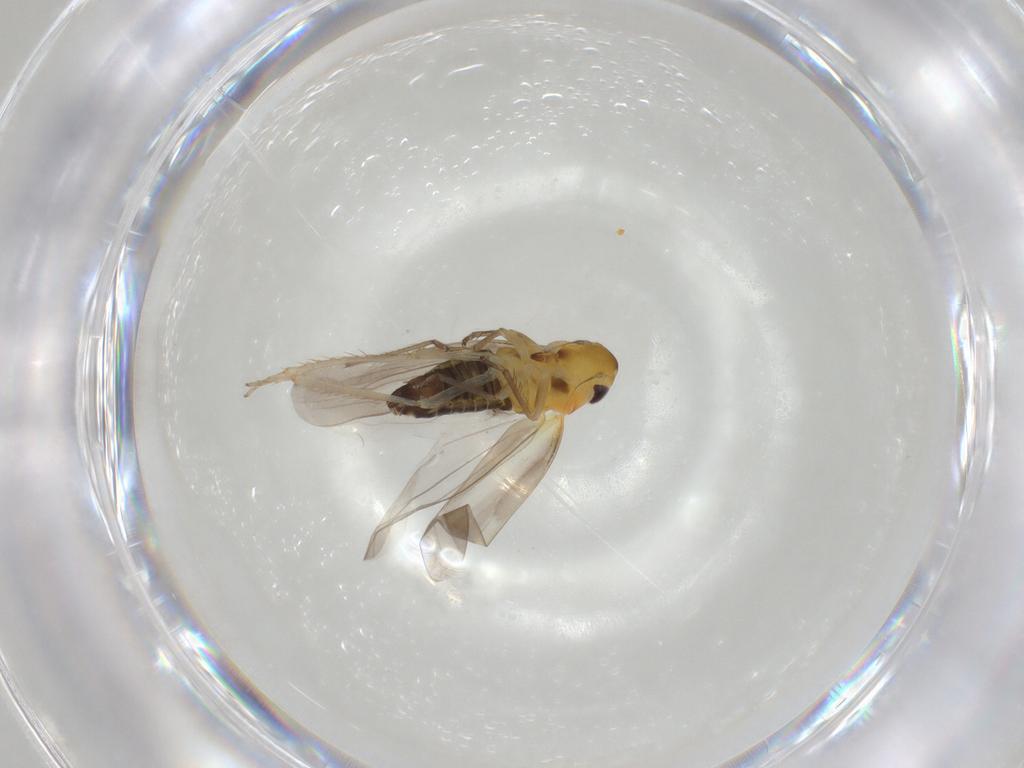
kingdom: Animalia
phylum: Arthropoda
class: Insecta
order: Hemiptera
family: Cicadellidae
